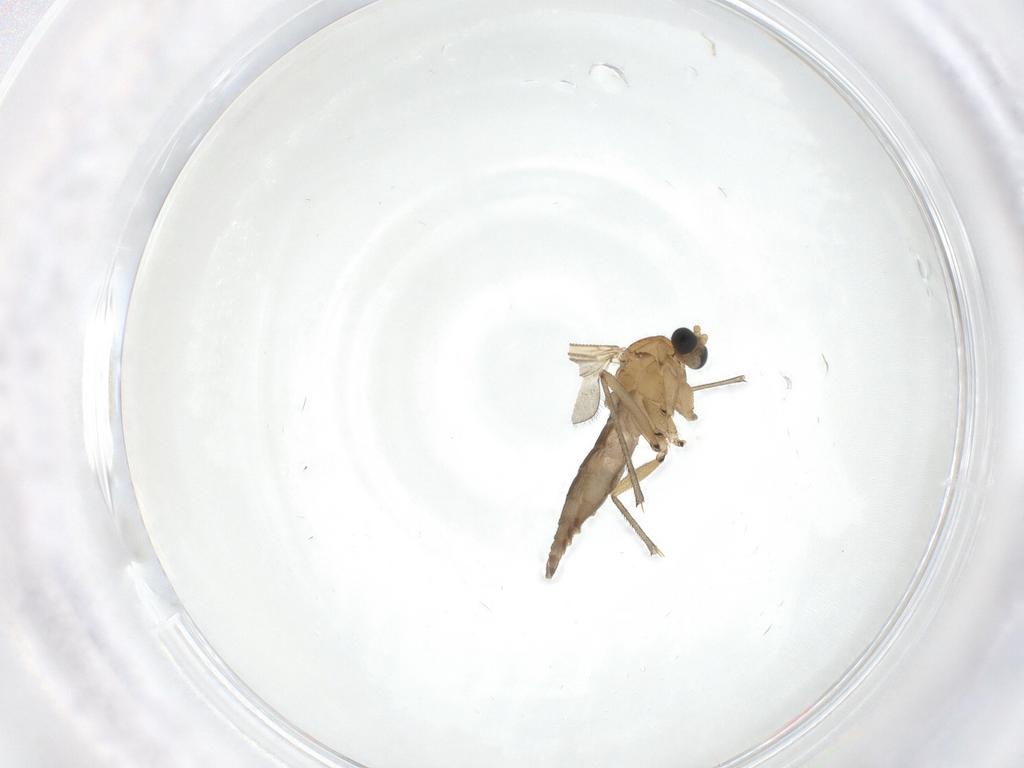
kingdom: Animalia
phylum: Arthropoda
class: Insecta
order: Diptera
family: Sciaridae
